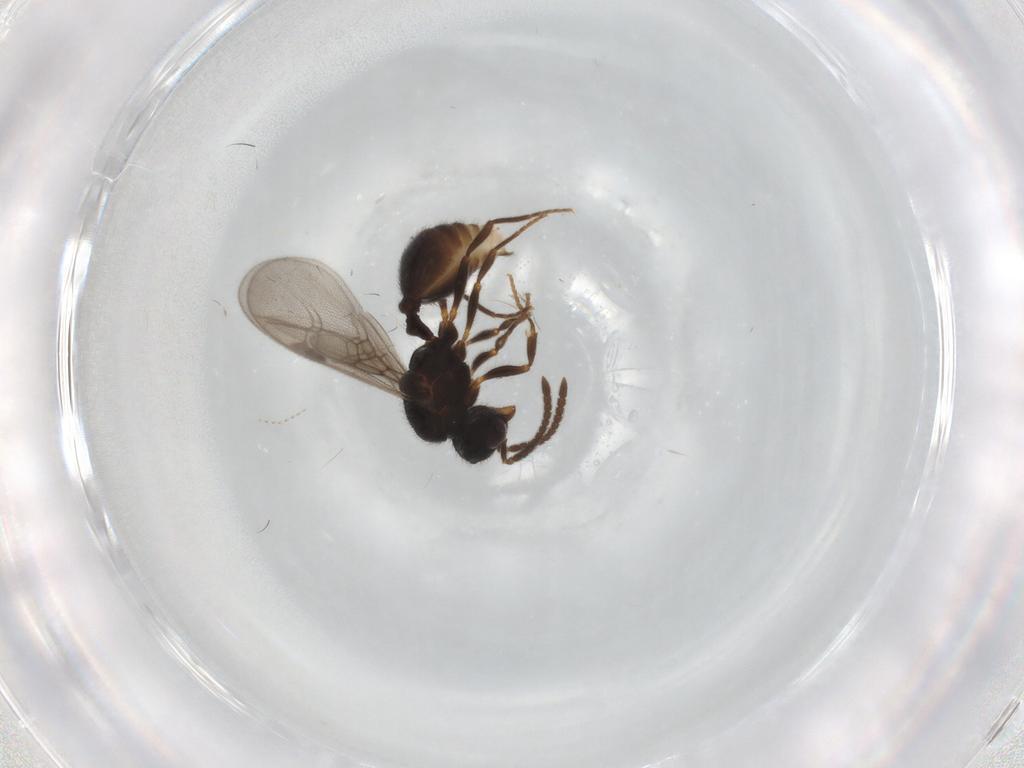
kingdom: Animalia
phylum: Arthropoda
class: Insecta
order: Hymenoptera
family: Formicidae
